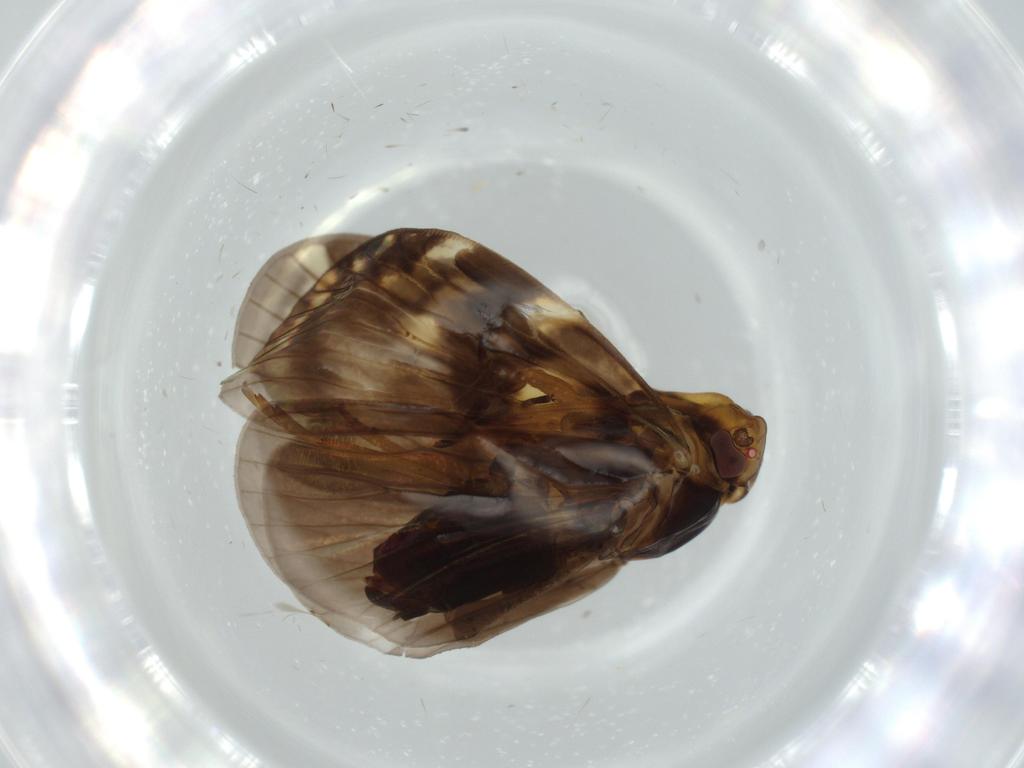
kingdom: Animalia
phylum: Arthropoda
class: Insecta
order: Hemiptera
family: Cixiidae
